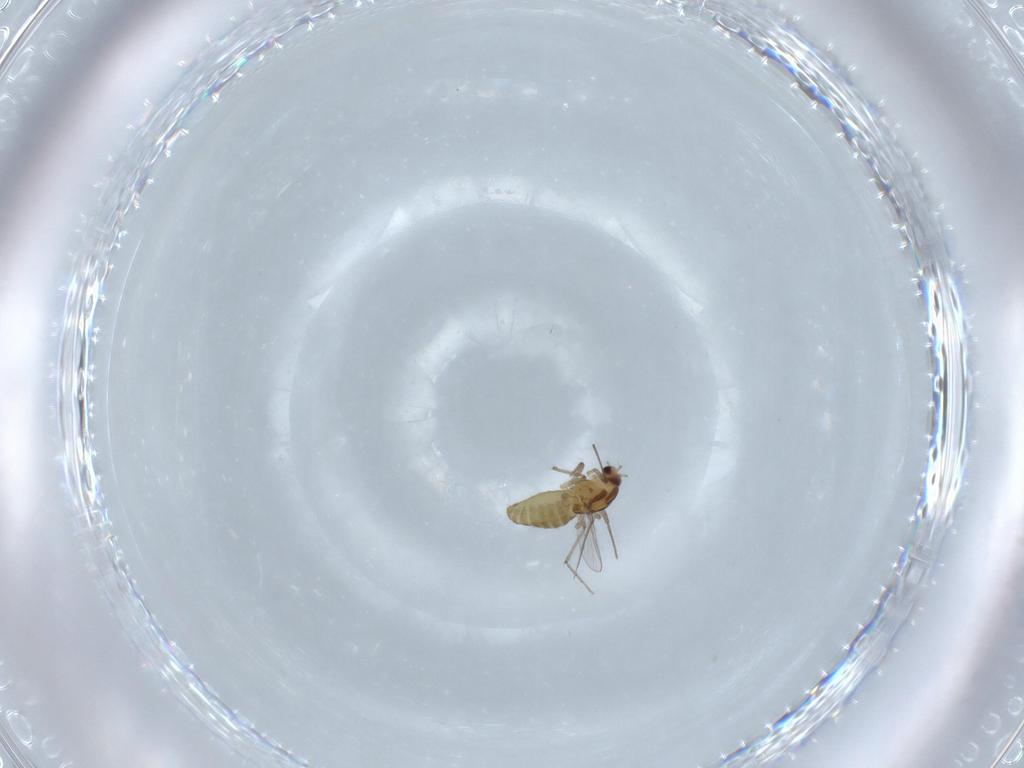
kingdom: Animalia
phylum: Arthropoda
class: Insecta
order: Diptera
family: Chironomidae
